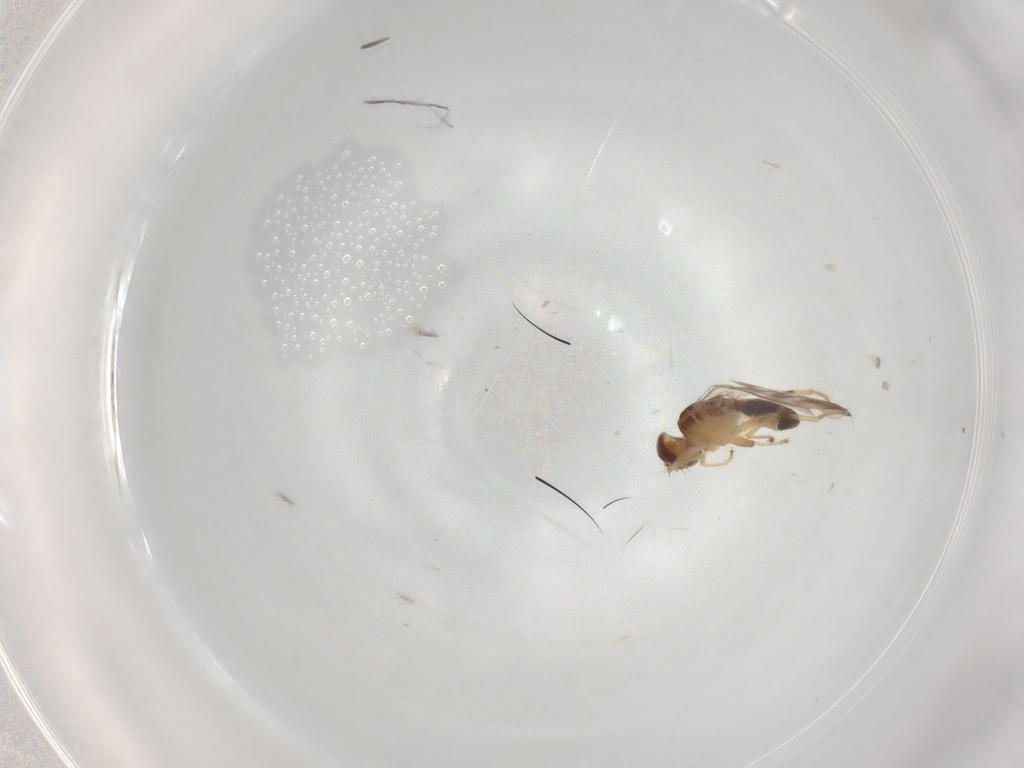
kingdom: Animalia
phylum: Arthropoda
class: Insecta
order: Diptera
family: Periscelididae
